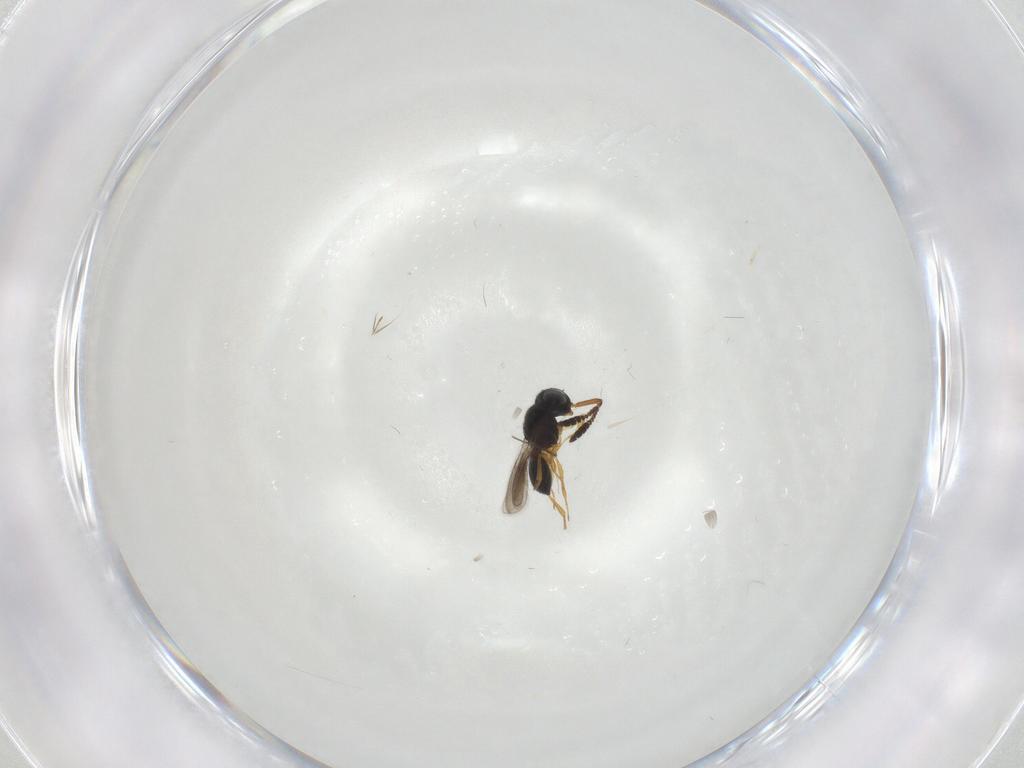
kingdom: Animalia
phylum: Arthropoda
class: Insecta
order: Hymenoptera
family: Scelionidae
